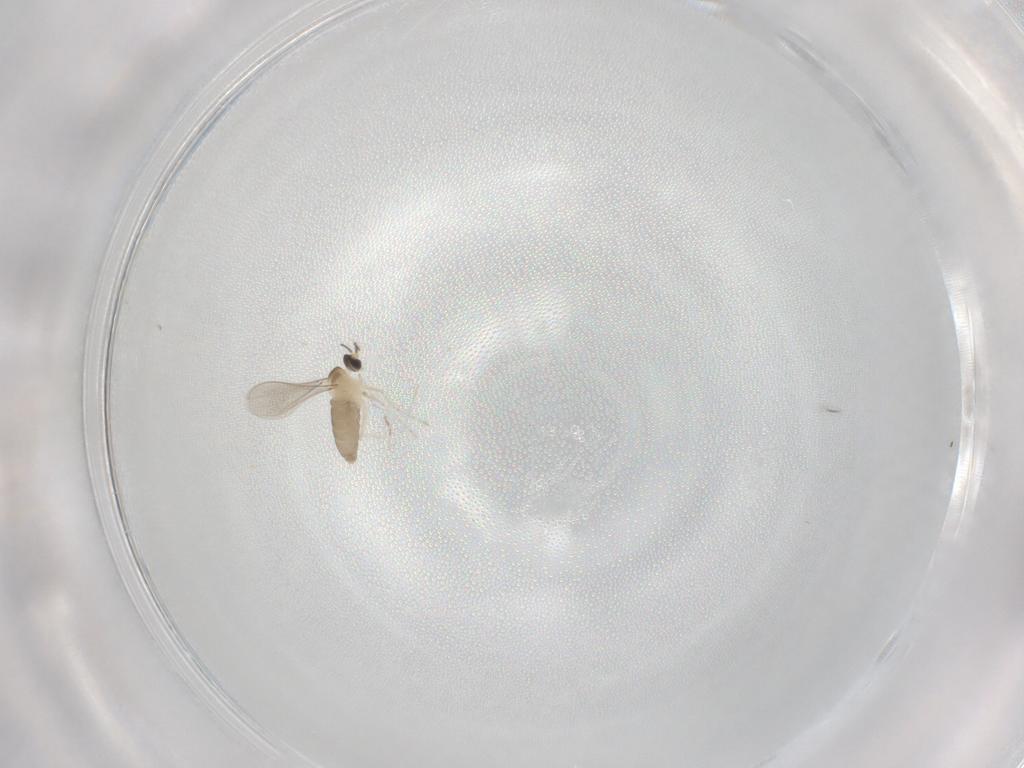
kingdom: Animalia
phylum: Arthropoda
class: Insecta
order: Diptera
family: Cecidomyiidae
